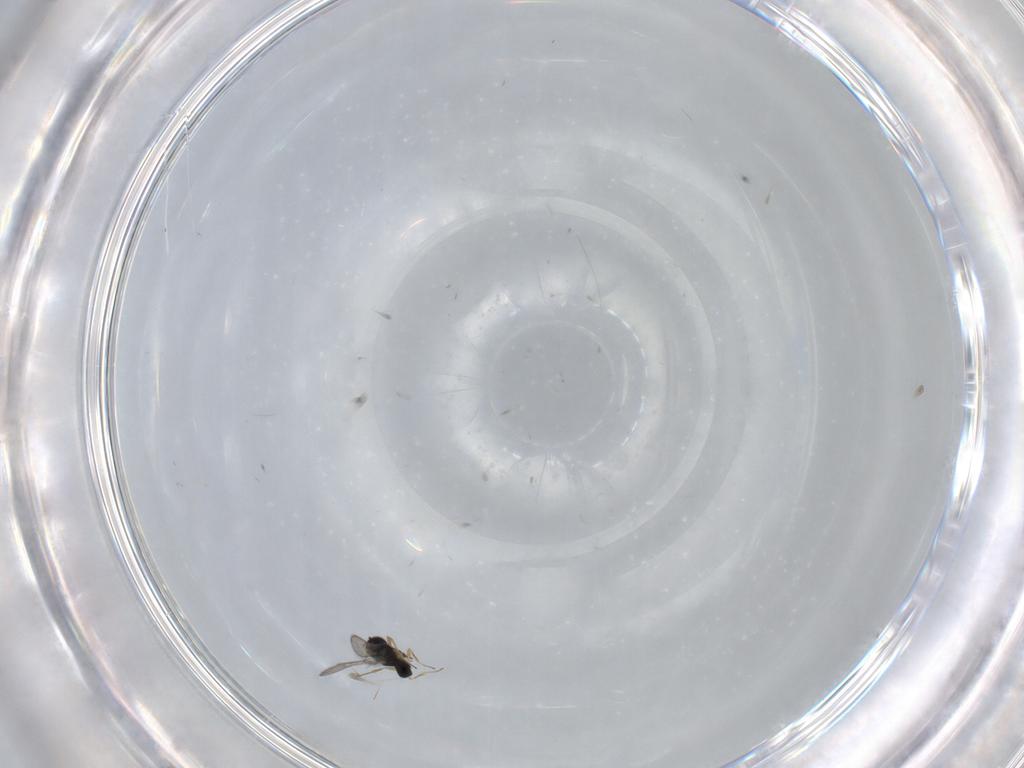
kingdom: Animalia
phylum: Arthropoda
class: Insecta
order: Hymenoptera
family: Scelionidae
